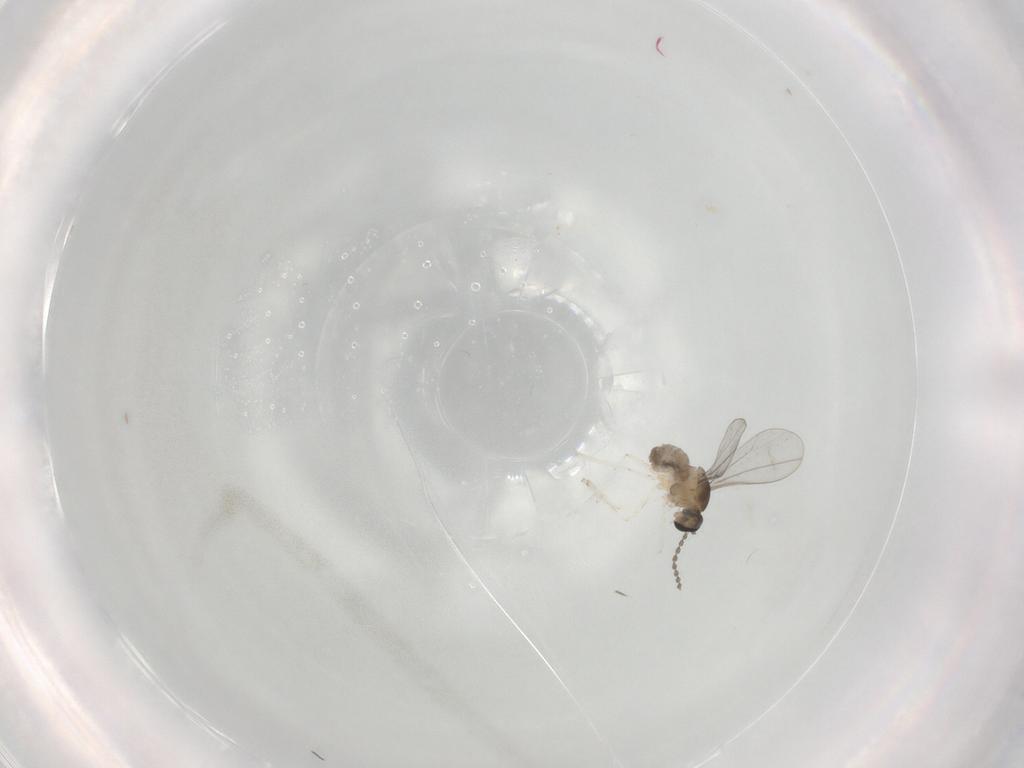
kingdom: Animalia
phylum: Arthropoda
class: Insecta
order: Diptera
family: Cecidomyiidae
